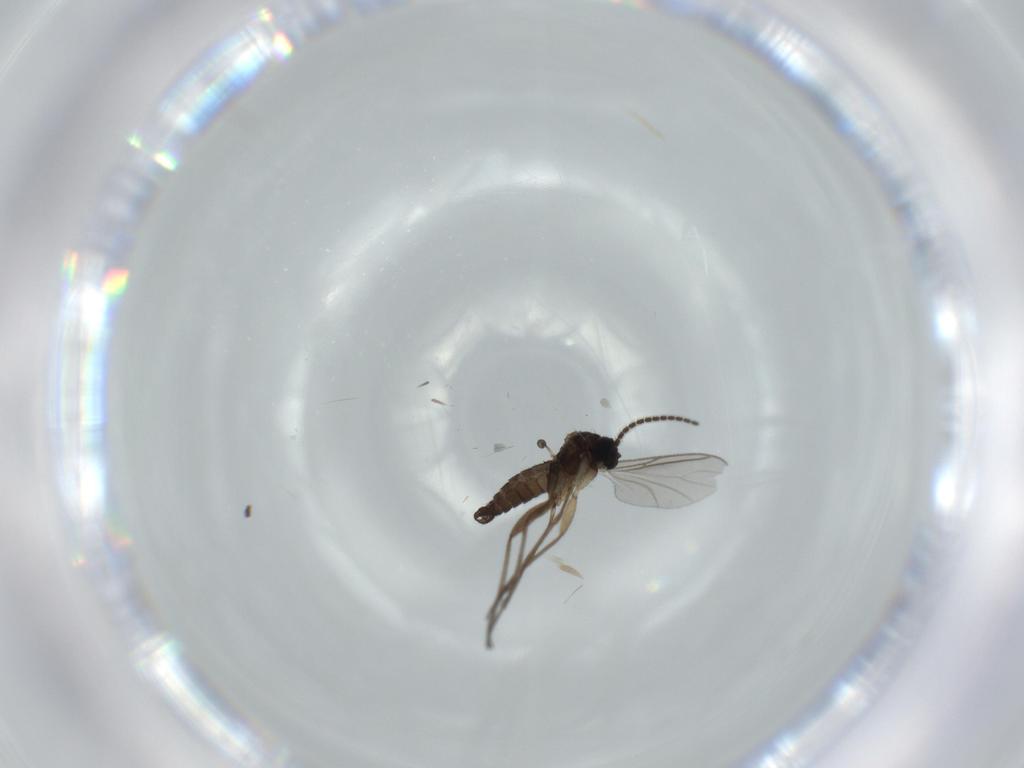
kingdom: Animalia
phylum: Arthropoda
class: Insecta
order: Diptera
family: Sciaridae
